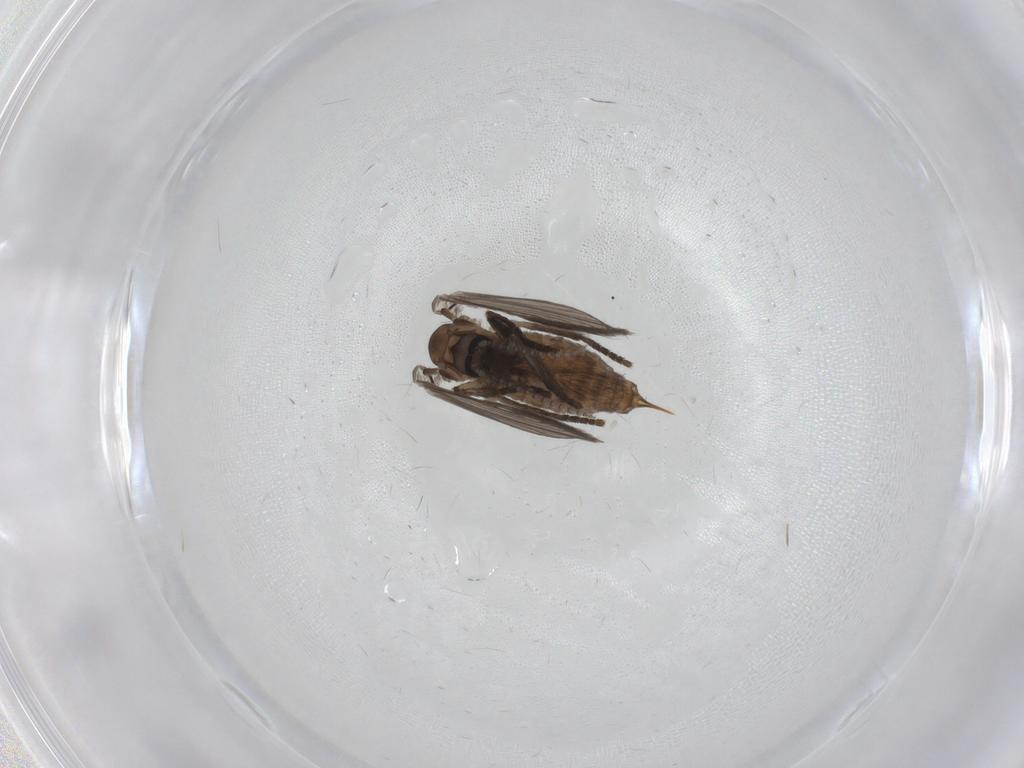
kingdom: Animalia
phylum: Arthropoda
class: Insecta
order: Diptera
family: Psychodidae
